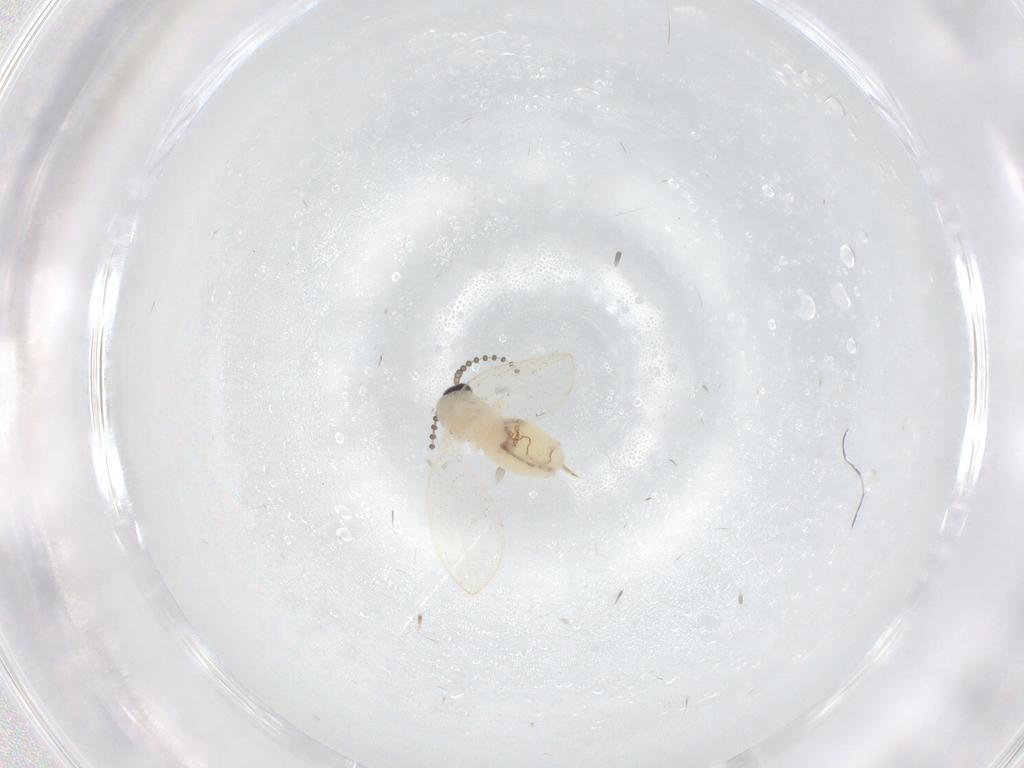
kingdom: Animalia
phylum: Arthropoda
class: Insecta
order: Diptera
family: Psychodidae
